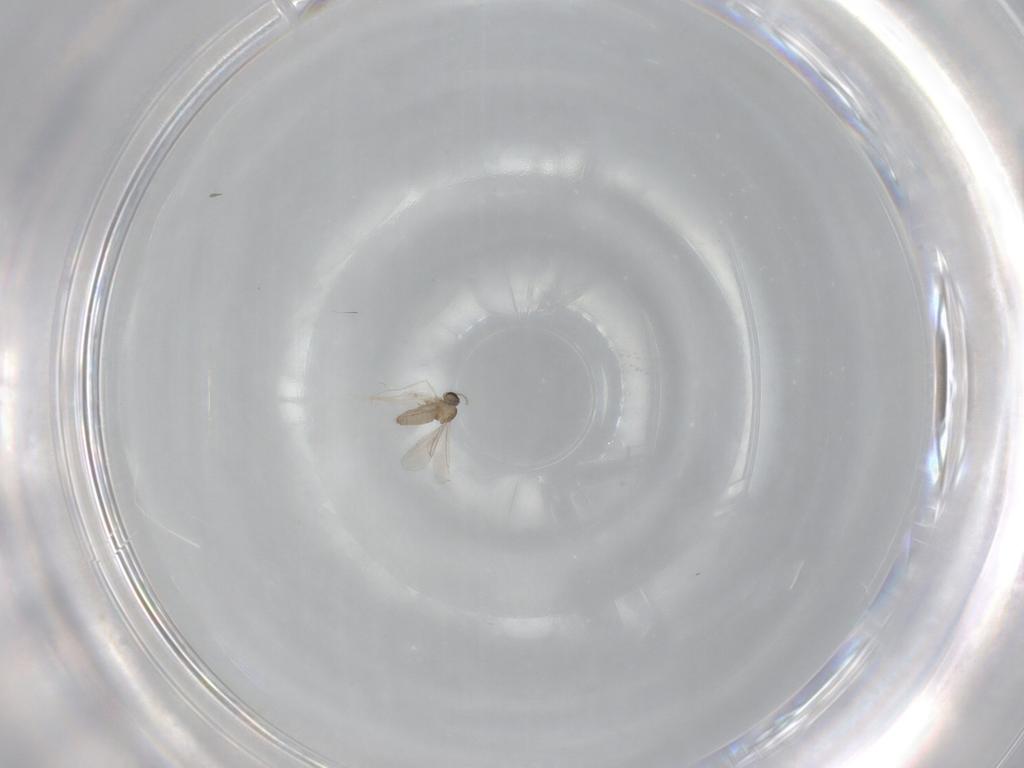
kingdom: Animalia
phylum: Arthropoda
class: Insecta
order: Diptera
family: Cecidomyiidae
